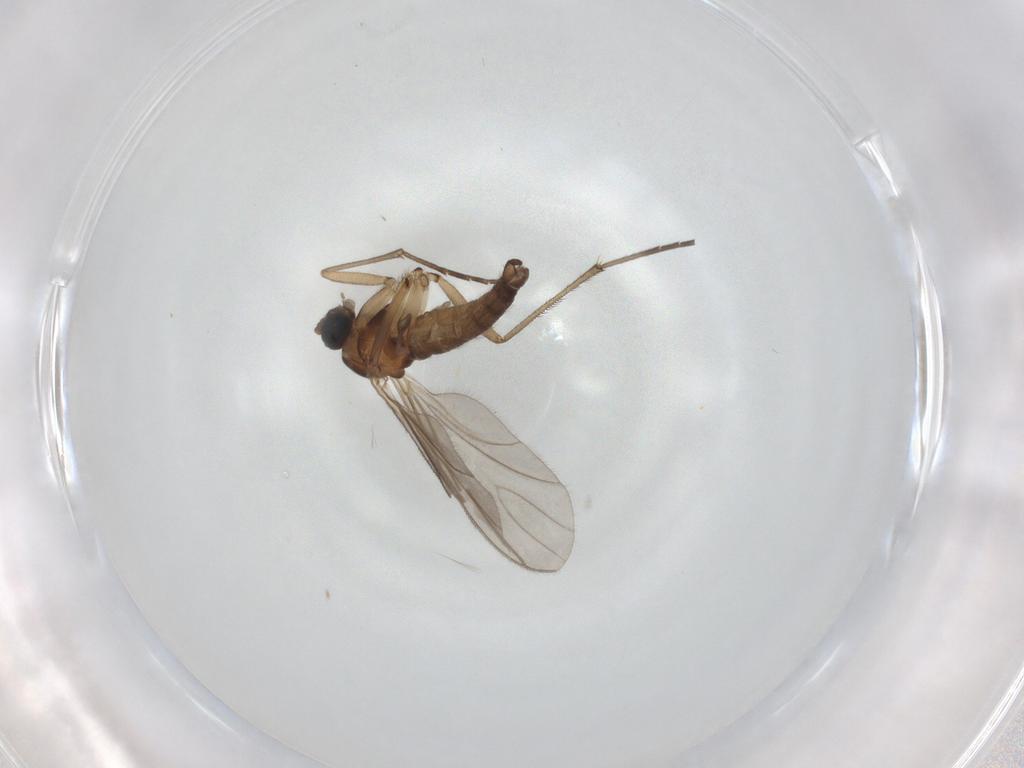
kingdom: Animalia
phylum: Arthropoda
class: Insecta
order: Diptera
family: Sciaridae
